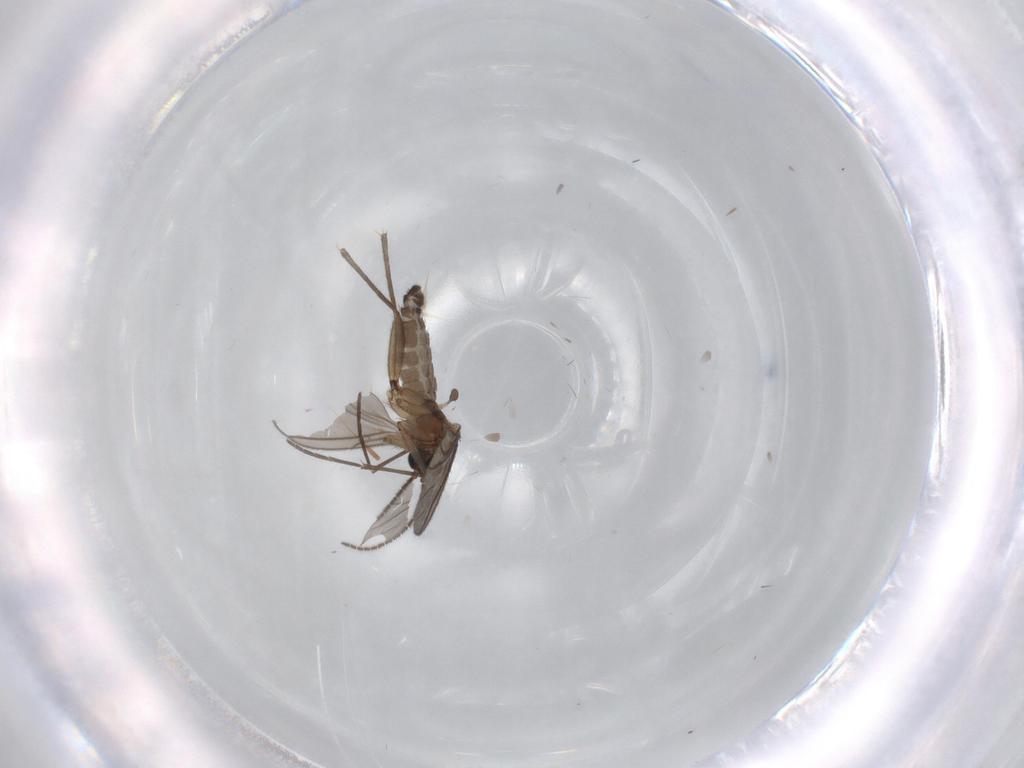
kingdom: Animalia
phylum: Arthropoda
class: Insecta
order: Diptera
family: Sciaridae
